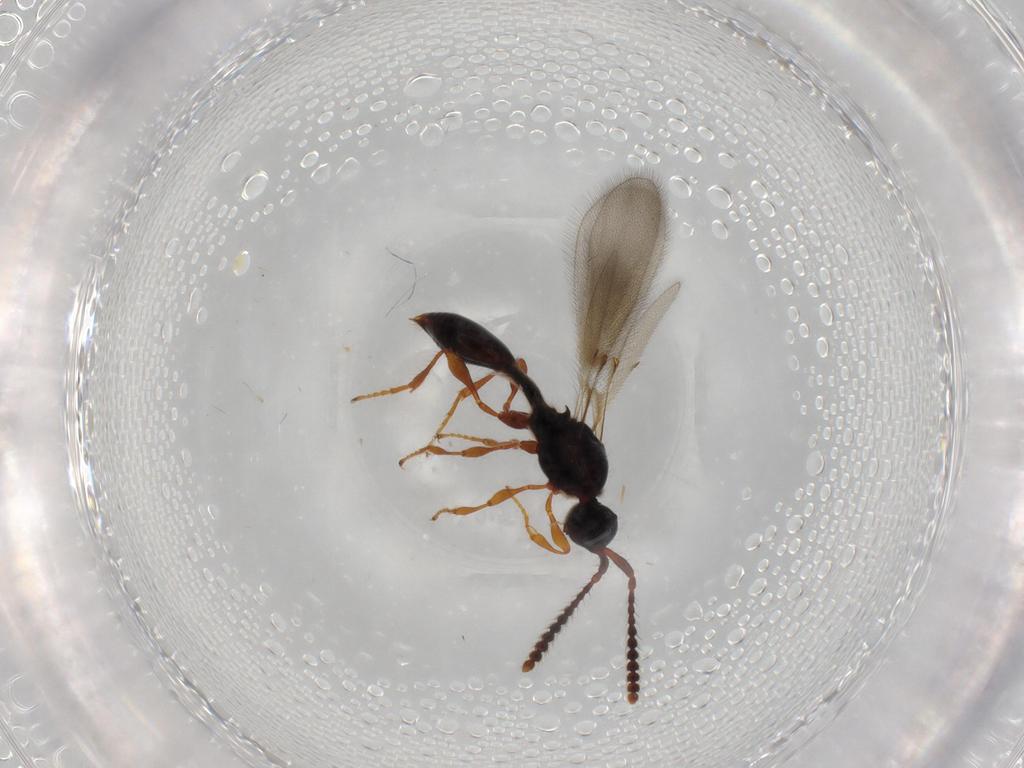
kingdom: Animalia
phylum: Arthropoda
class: Insecta
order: Hymenoptera
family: Diapriidae
